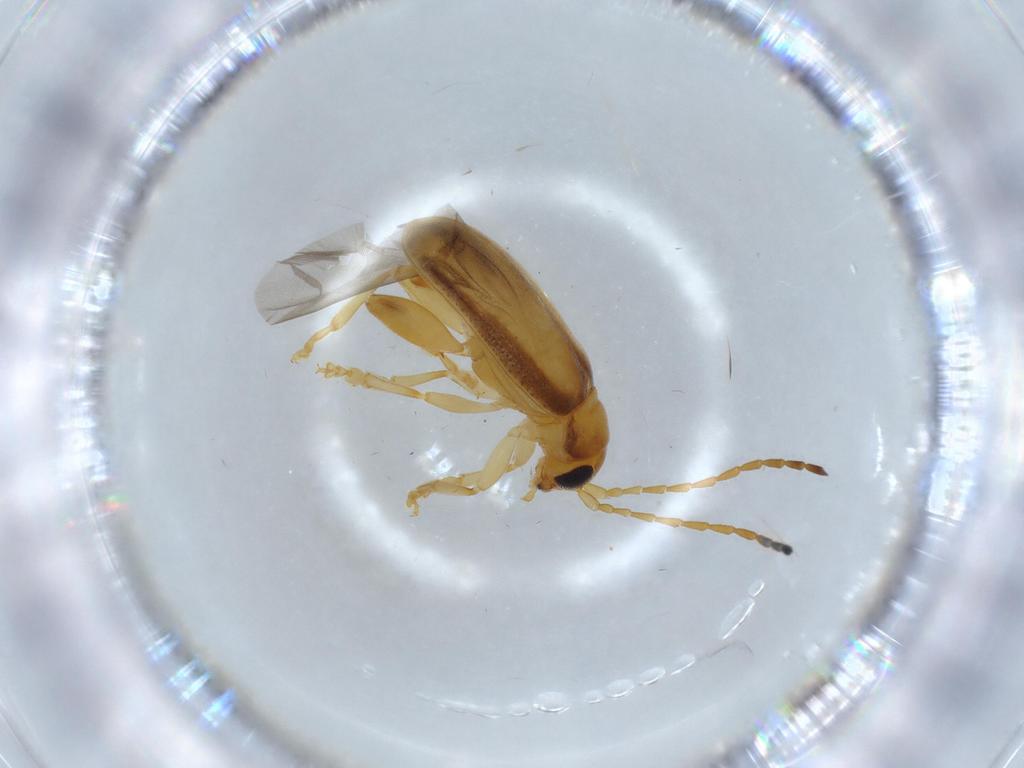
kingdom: Animalia
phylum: Arthropoda
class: Insecta
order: Coleoptera
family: Chrysomelidae
